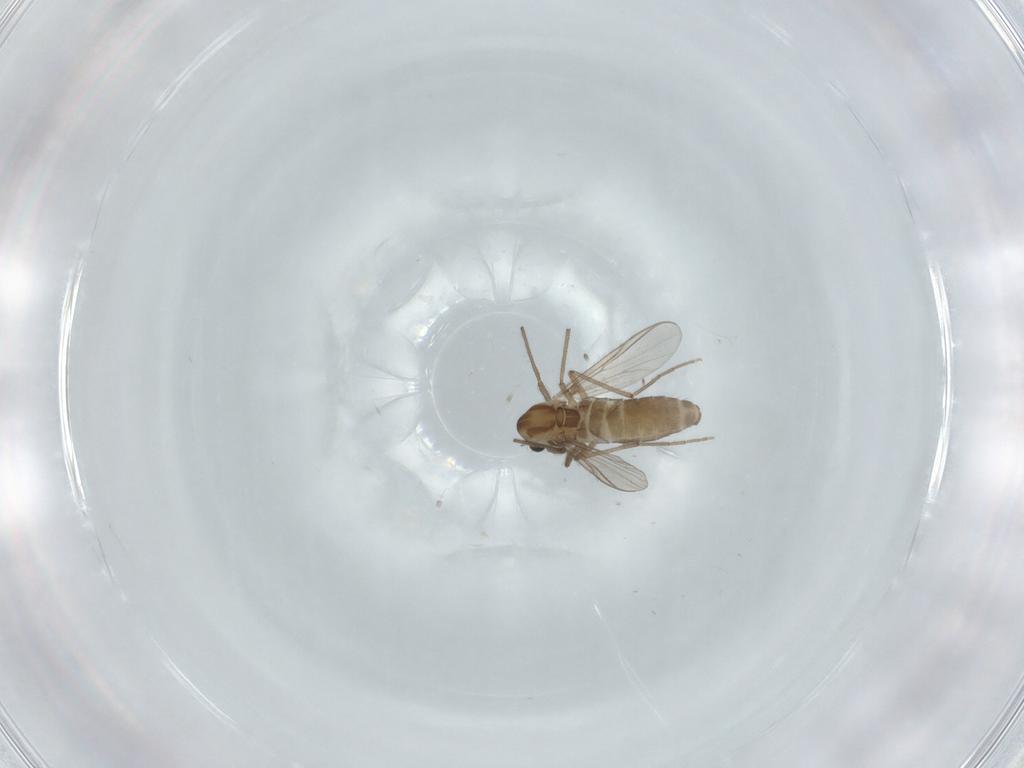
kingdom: Animalia
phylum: Arthropoda
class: Insecta
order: Diptera
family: Chironomidae
